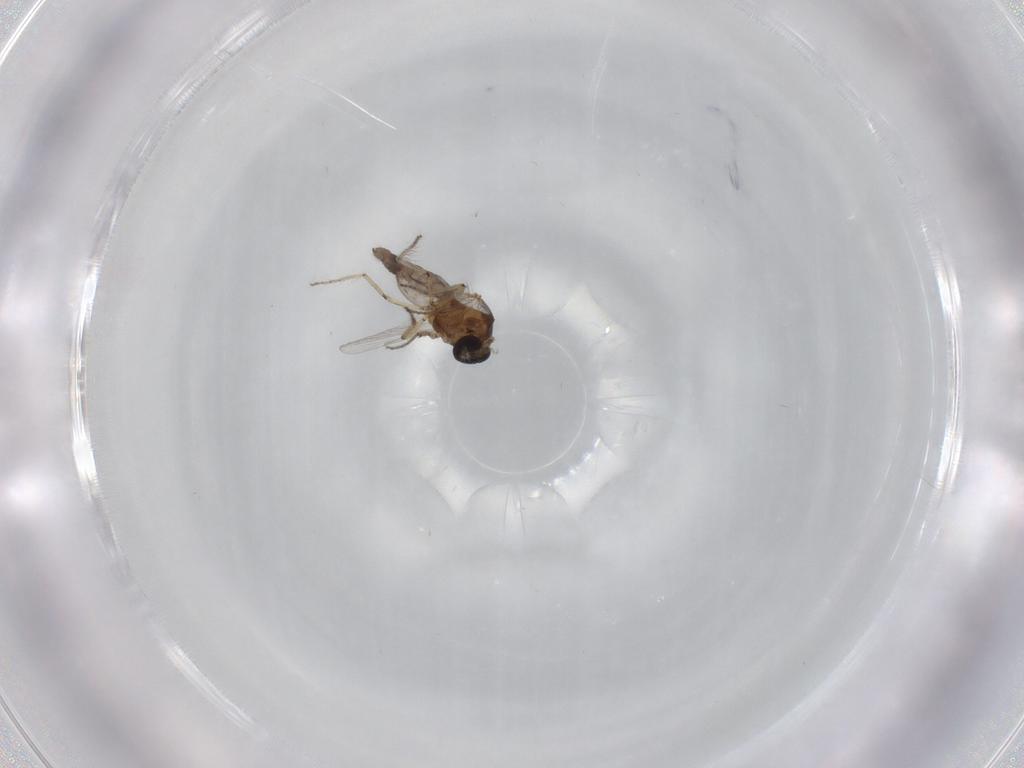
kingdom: Animalia
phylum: Arthropoda
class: Insecta
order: Diptera
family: Ceratopogonidae
